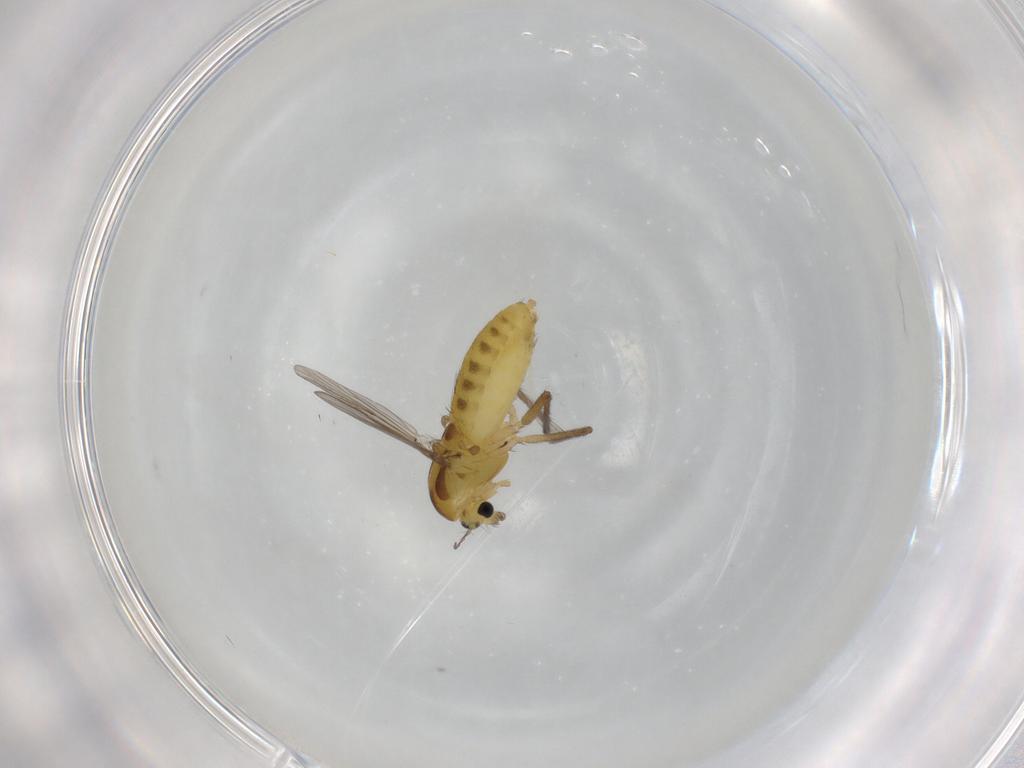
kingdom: Animalia
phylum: Arthropoda
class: Insecta
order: Diptera
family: Chironomidae
